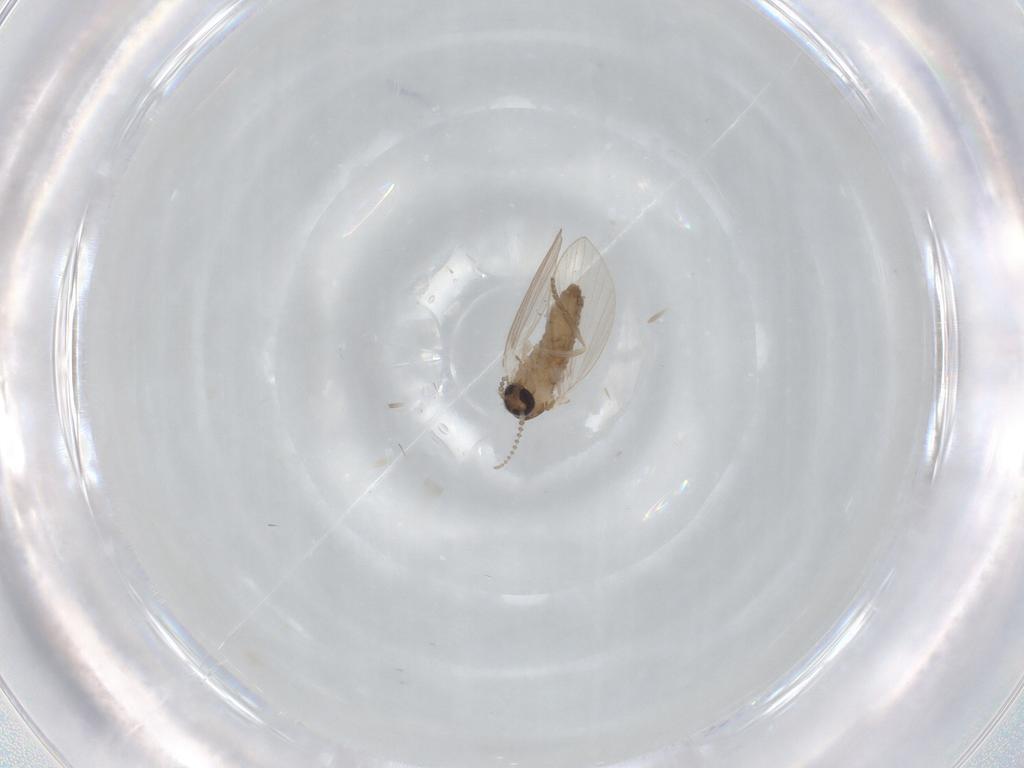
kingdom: Animalia
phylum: Arthropoda
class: Insecta
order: Diptera
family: Psychodidae
